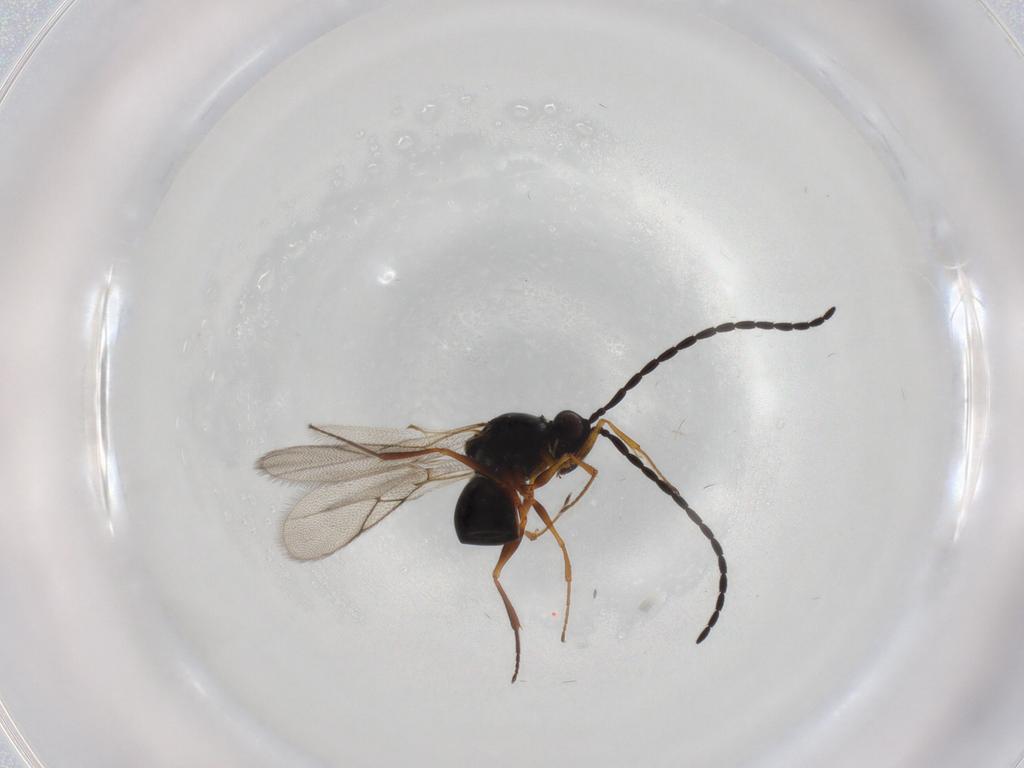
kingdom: Animalia
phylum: Arthropoda
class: Insecta
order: Hymenoptera
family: Figitidae
